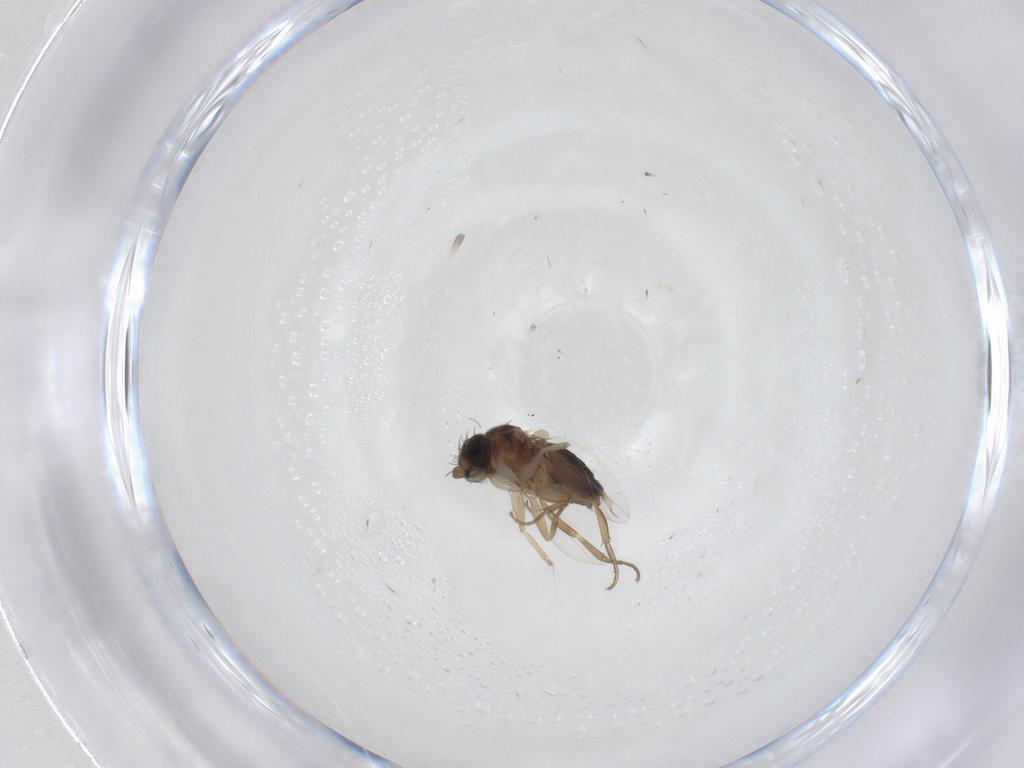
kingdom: Animalia
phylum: Arthropoda
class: Insecta
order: Diptera
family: Phoridae
